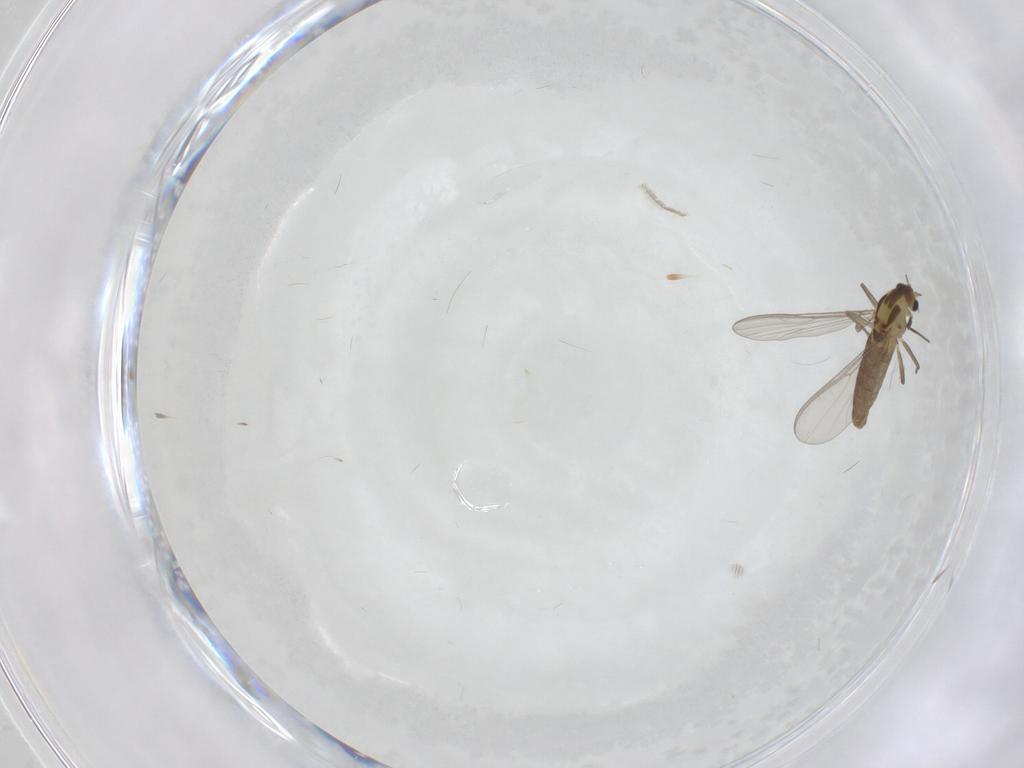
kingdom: Animalia
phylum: Arthropoda
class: Insecta
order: Diptera
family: Chironomidae
